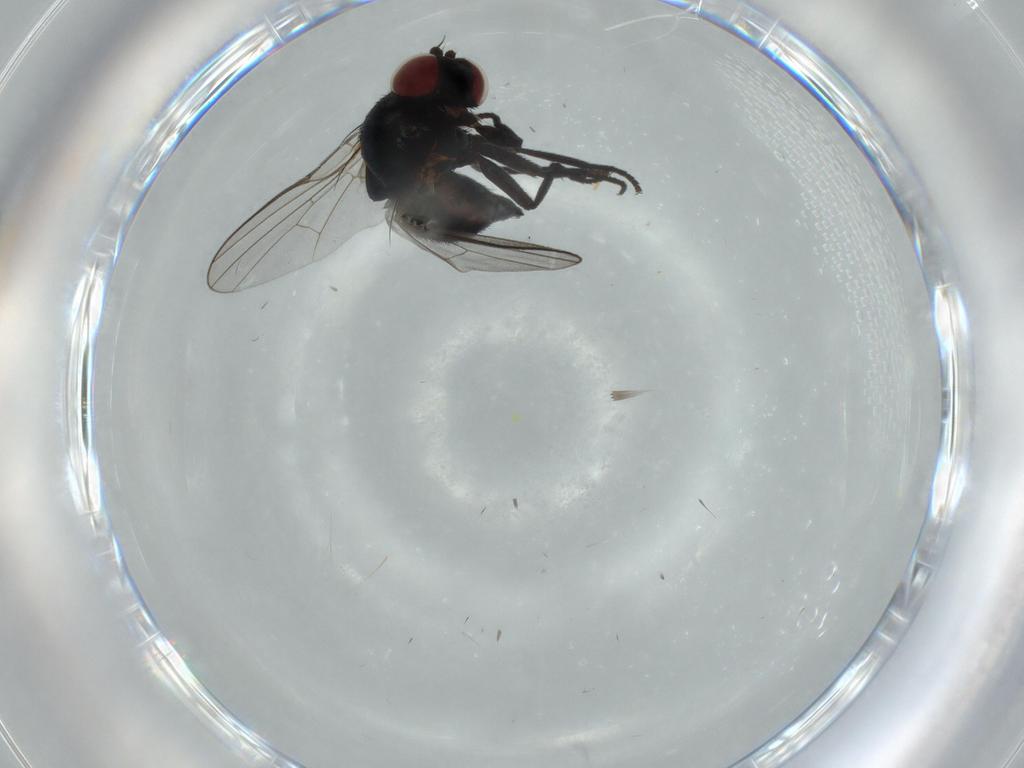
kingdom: Animalia
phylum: Arthropoda
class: Insecta
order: Diptera
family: Agromyzidae
